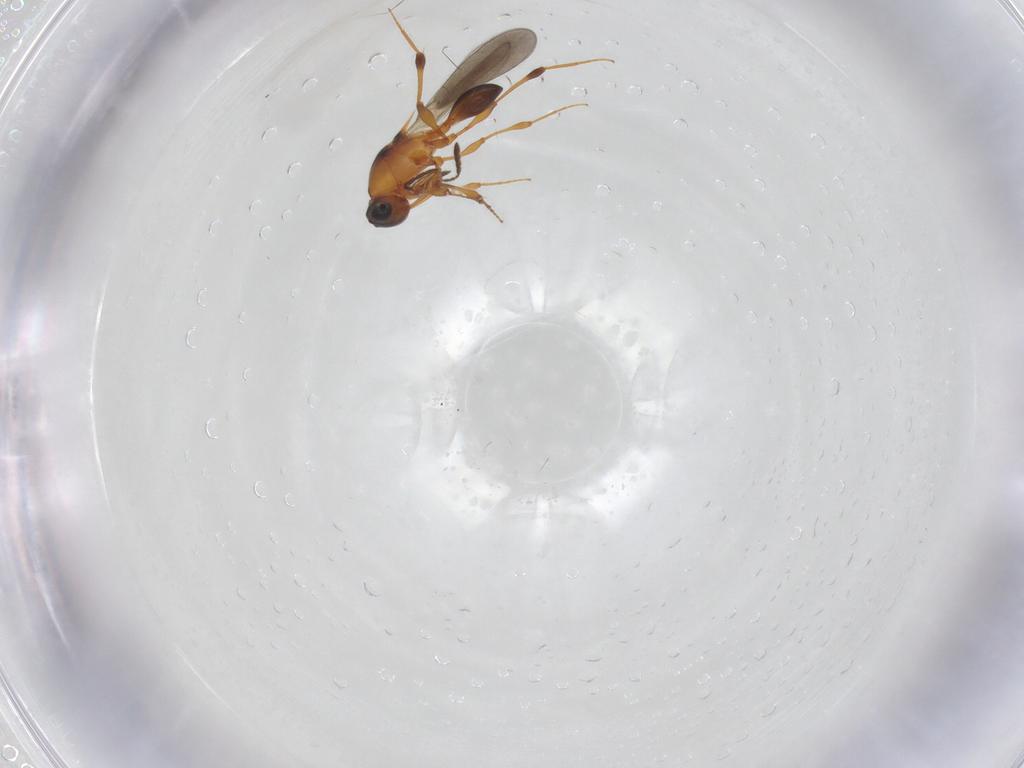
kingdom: Animalia
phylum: Arthropoda
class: Insecta
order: Hymenoptera
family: Platygastridae
